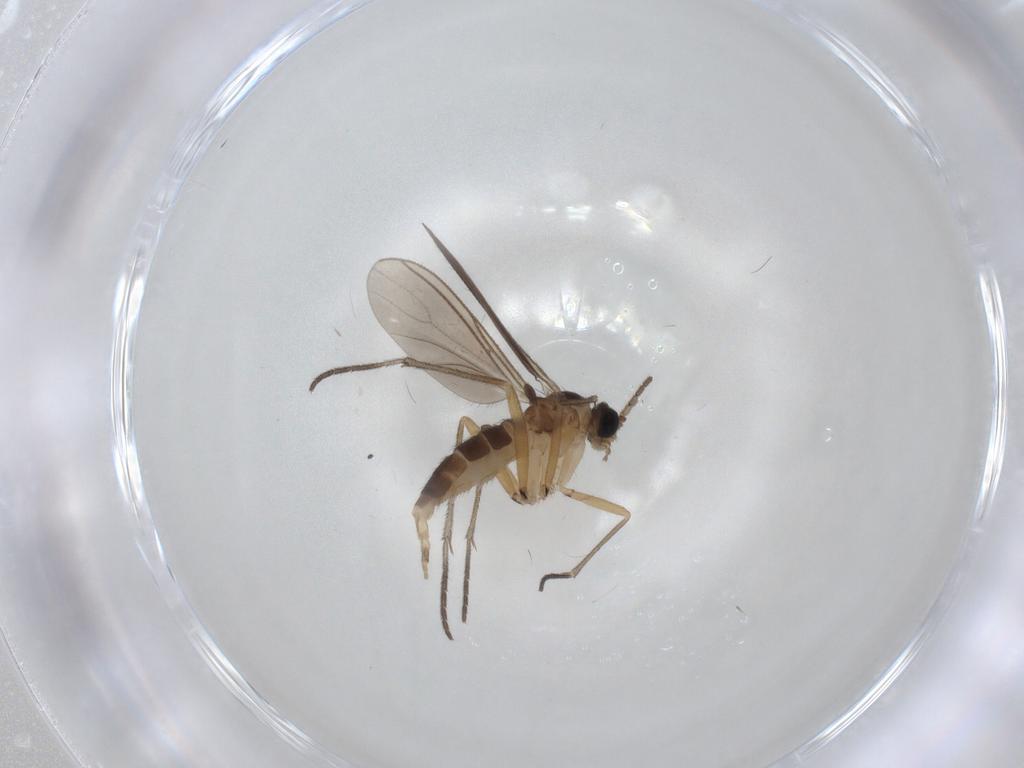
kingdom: Animalia
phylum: Arthropoda
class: Insecta
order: Diptera
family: Sciaridae
